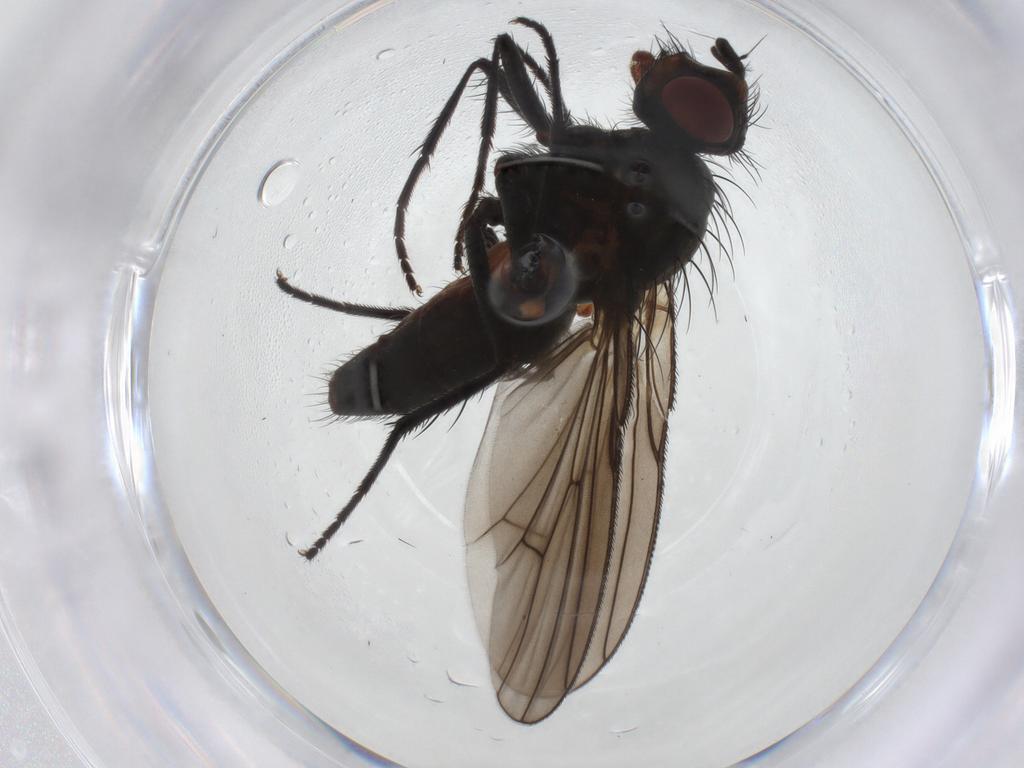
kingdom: Animalia
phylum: Arthropoda
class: Insecta
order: Diptera
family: Anthomyiidae
